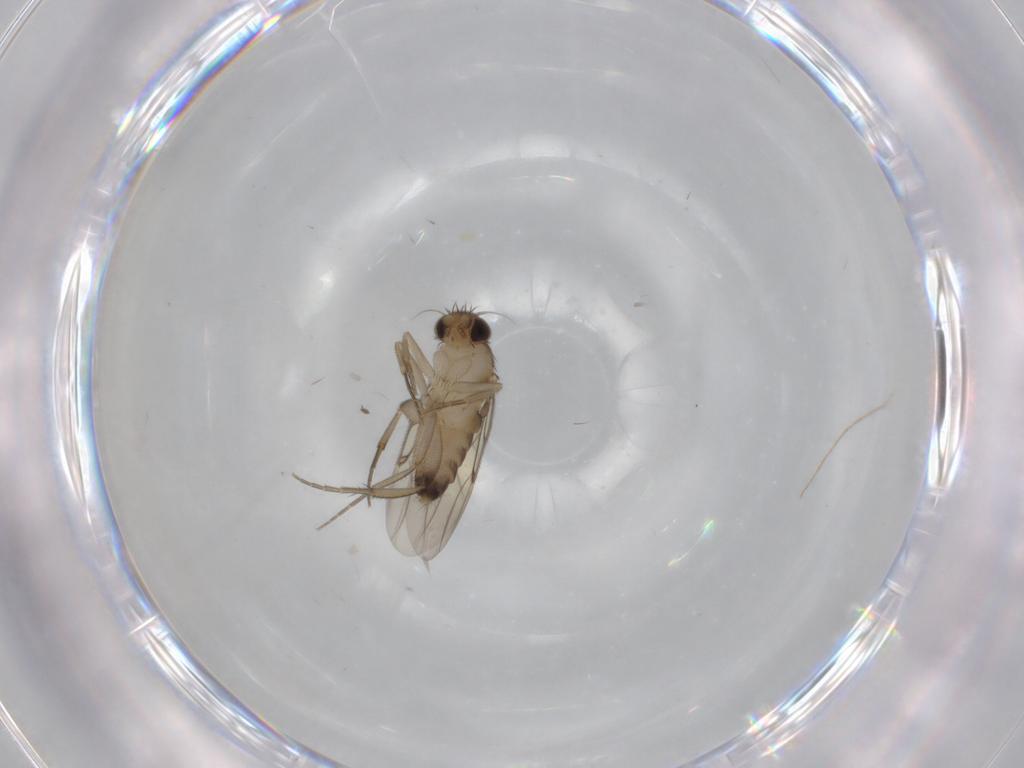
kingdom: Animalia
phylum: Arthropoda
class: Insecta
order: Diptera
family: Phoridae
